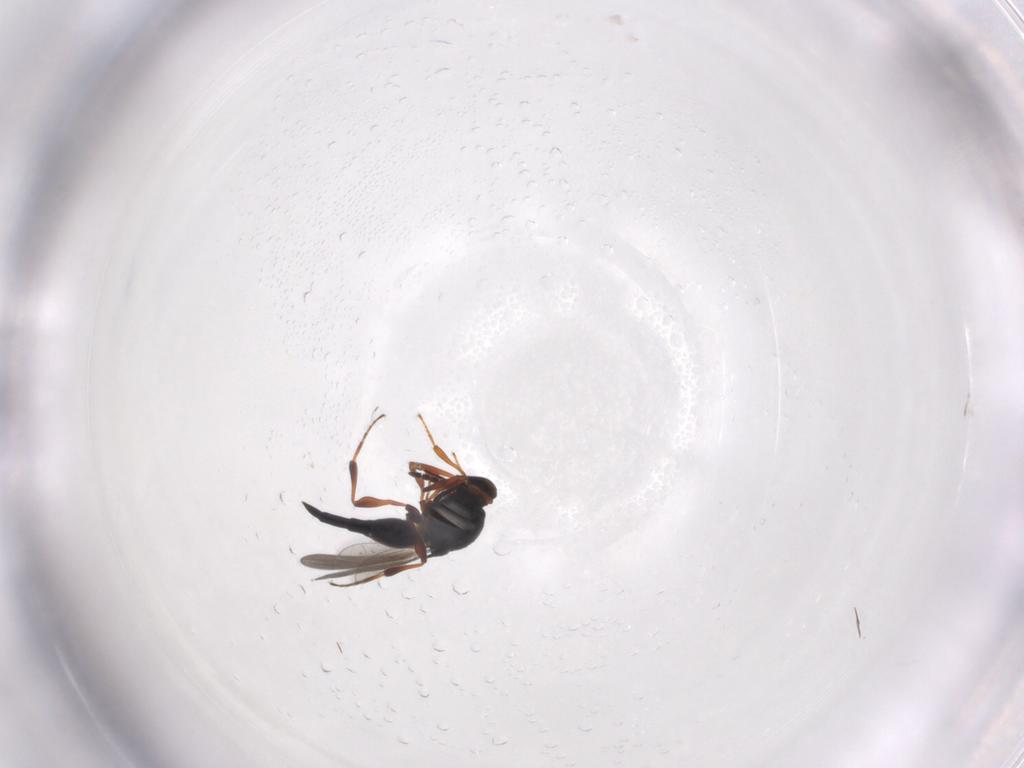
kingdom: Animalia
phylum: Arthropoda
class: Insecta
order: Hymenoptera
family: Platygastridae
